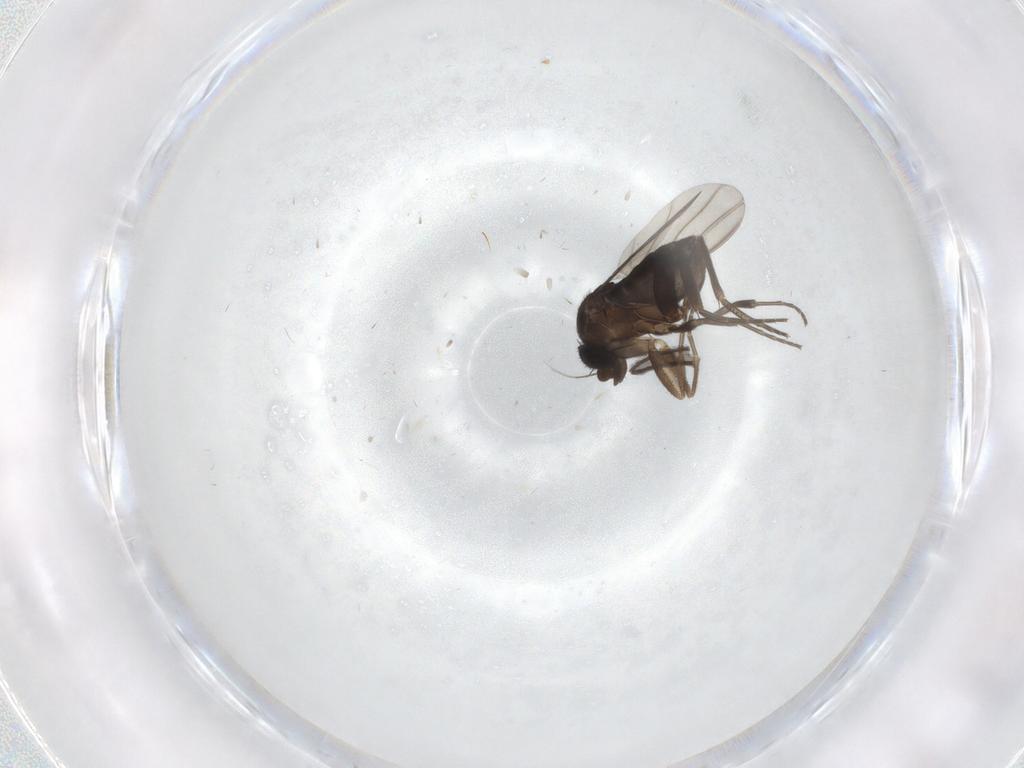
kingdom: Animalia
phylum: Arthropoda
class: Insecta
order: Diptera
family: Phoridae
